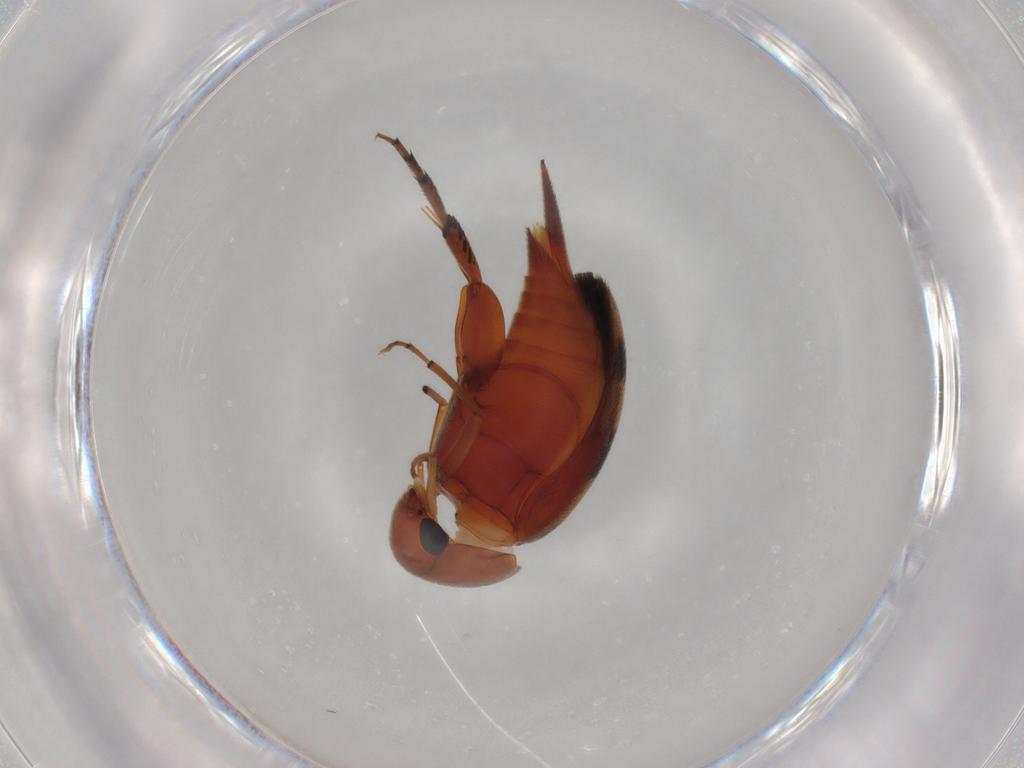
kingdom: Animalia
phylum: Arthropoda
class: Insecta
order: Coleoptera
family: Mordellidae
